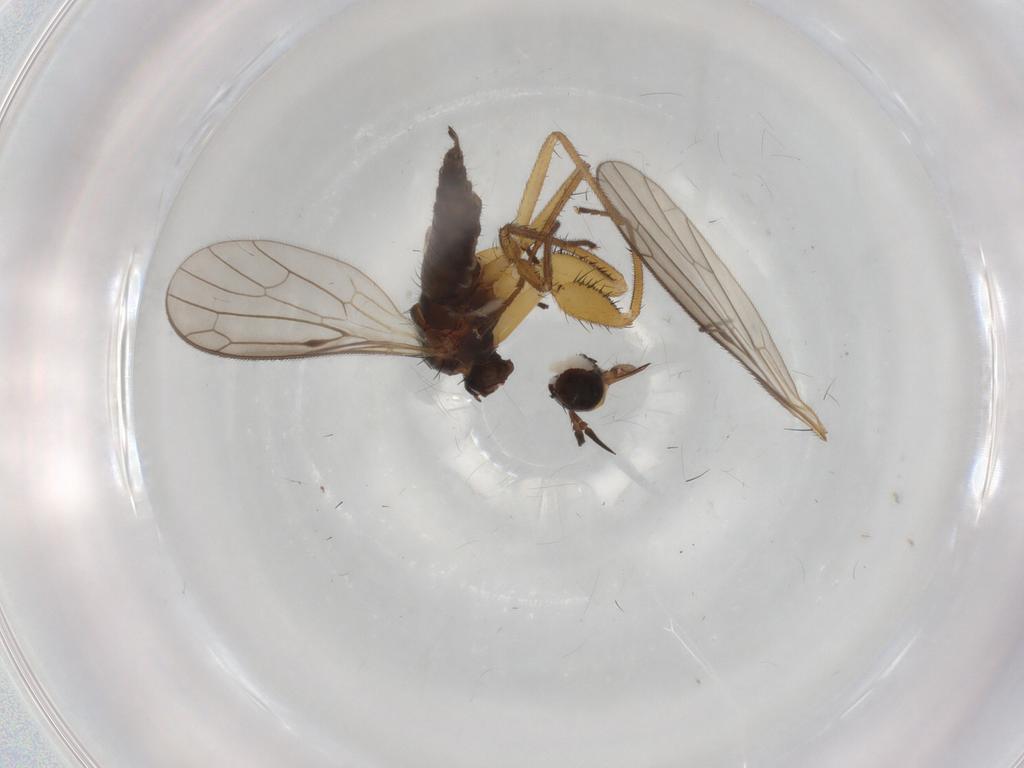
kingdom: Animalia
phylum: Arthropoda
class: Insecta
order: Diptera
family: Empididae
